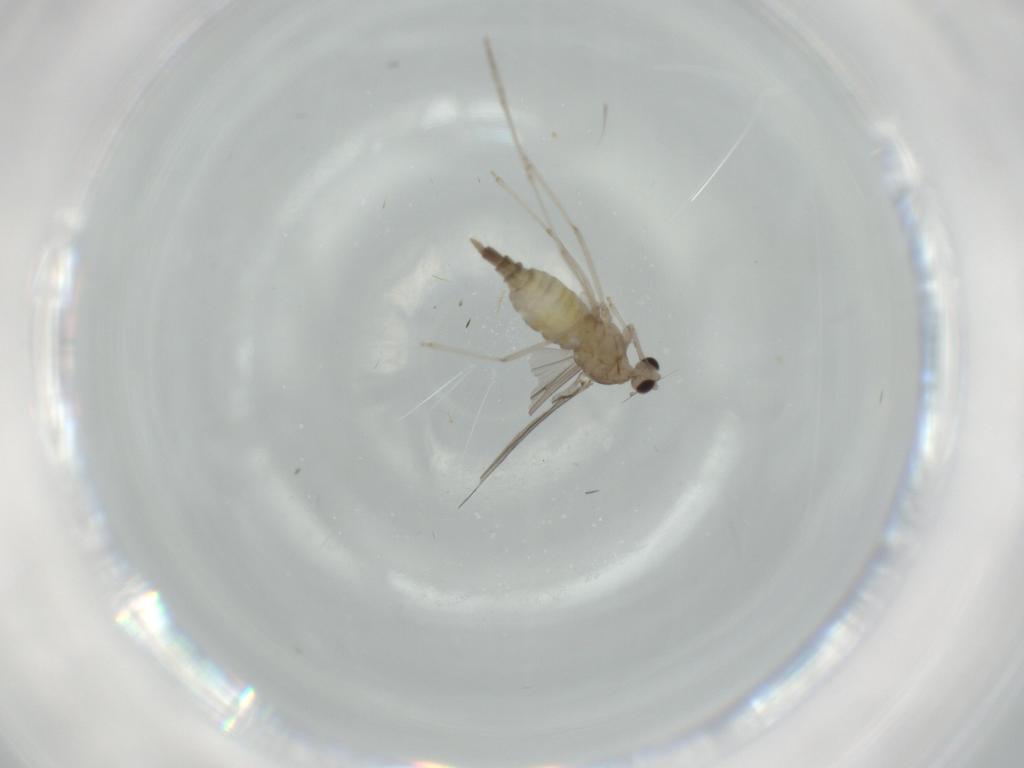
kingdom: Animalia
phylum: Arthropoda
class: Insecta
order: Diptera
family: Cecidomyiidae
